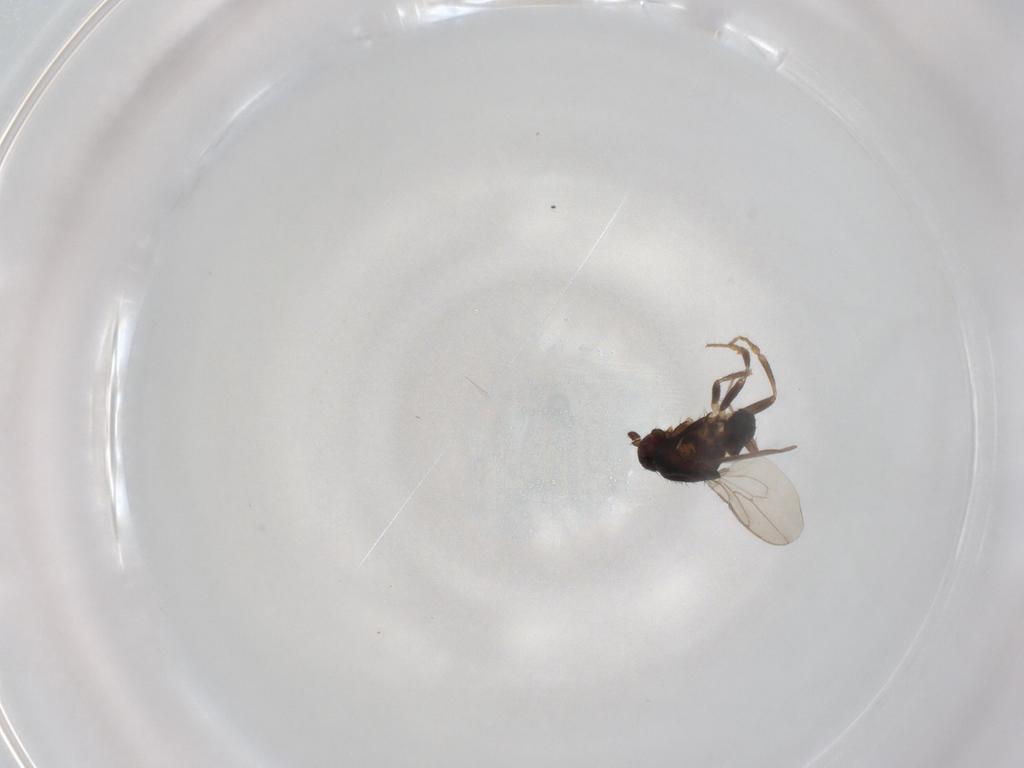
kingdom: Animalia
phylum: Arthropoda
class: Insecta
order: Diptera
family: Sphaeroceridae
